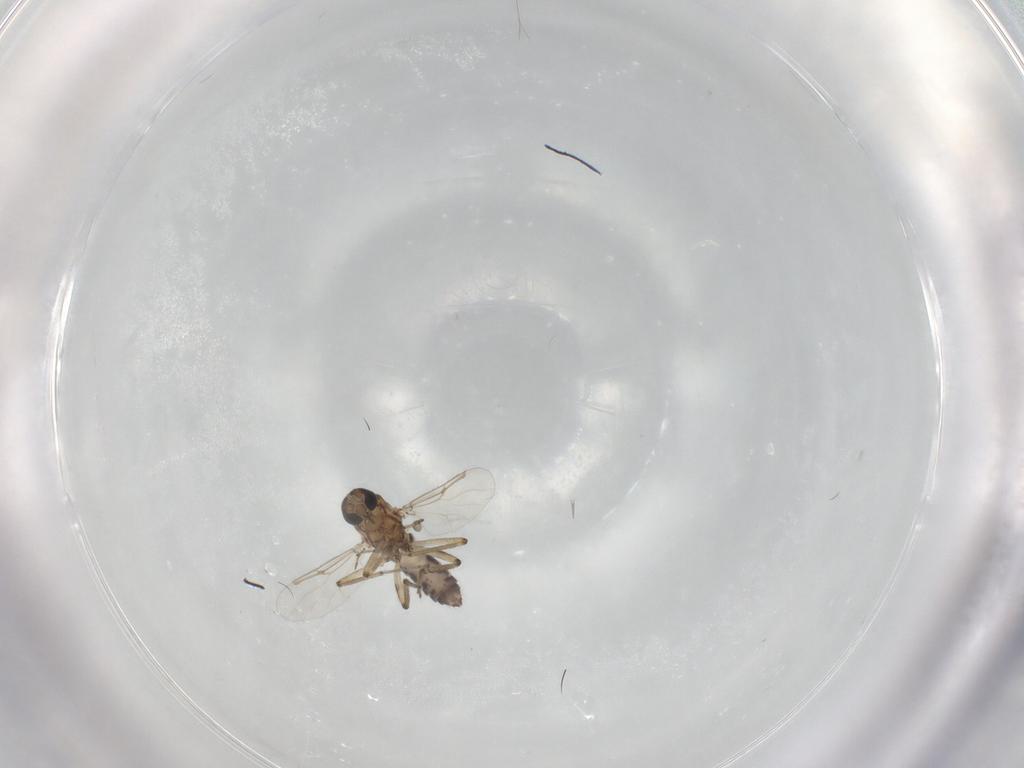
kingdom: Animalia
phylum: Arthropoda
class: Insecta
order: Diptera
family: Ceratopogonidae
